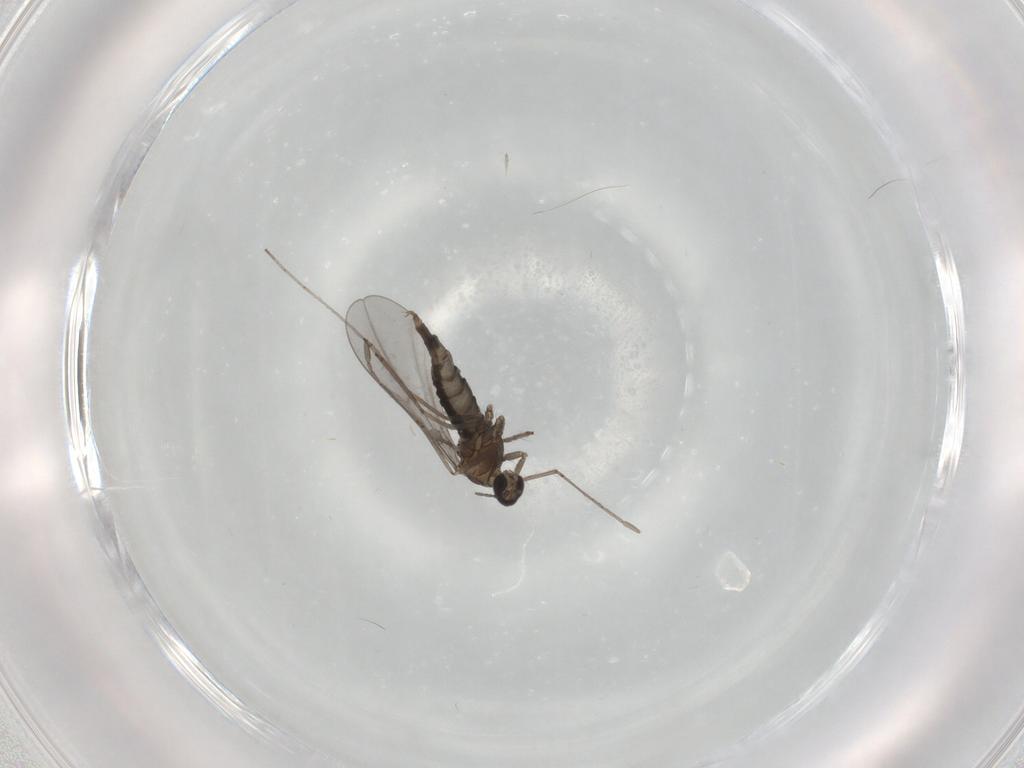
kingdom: Animalia
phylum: Arthropoda
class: Insecta
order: Diptera
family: Cecidomyiidae
